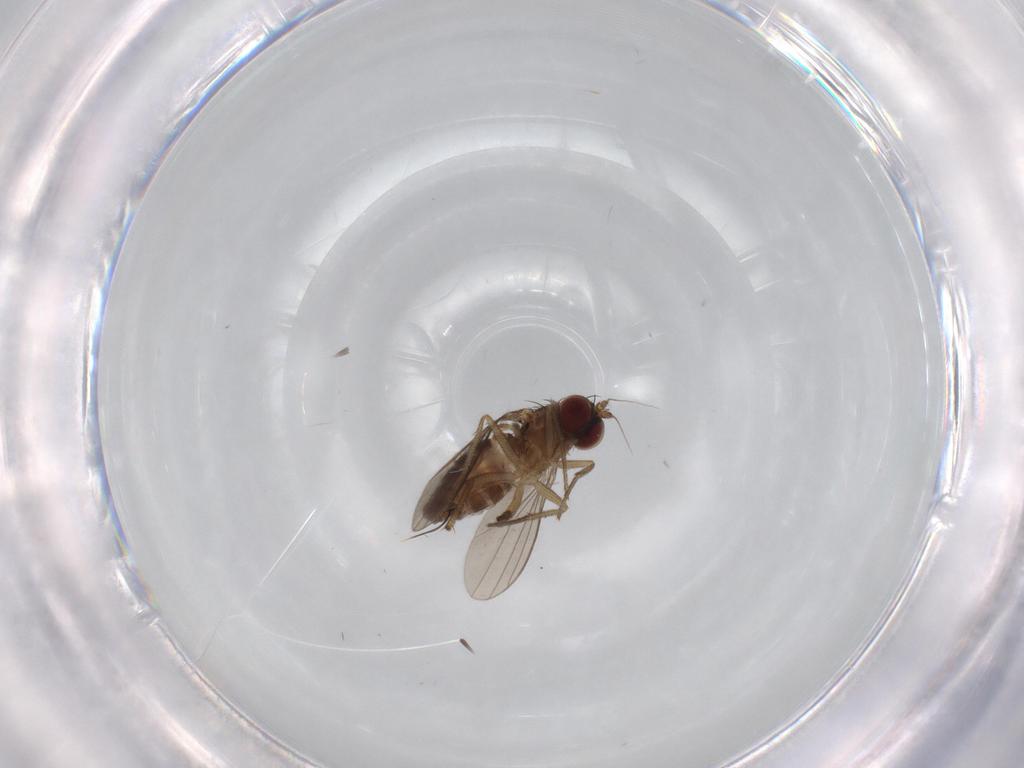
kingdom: Animalia
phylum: Arthropoda
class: Insecta
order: Diptera
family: Dolichopodidae
